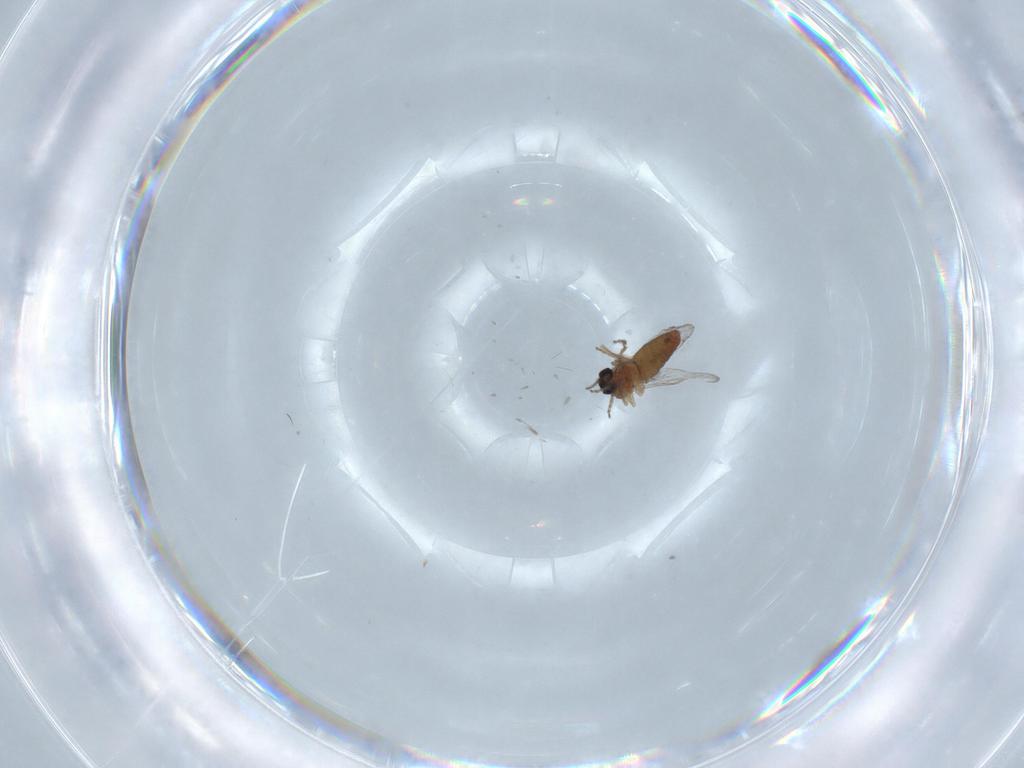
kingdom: Animalia
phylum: Arthropoda
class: Insecta
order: Diptera
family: Ceratopogonidae
